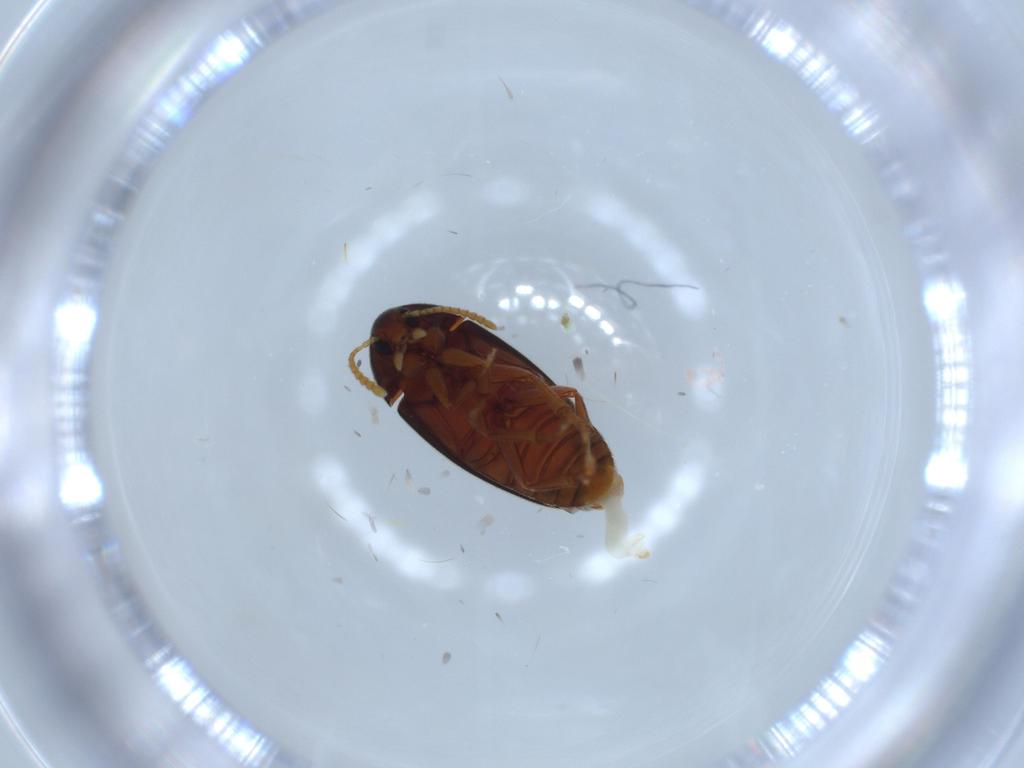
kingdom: Animalia
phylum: Arthropoda
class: Insecta
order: Coleoptera
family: Scraptiidae
